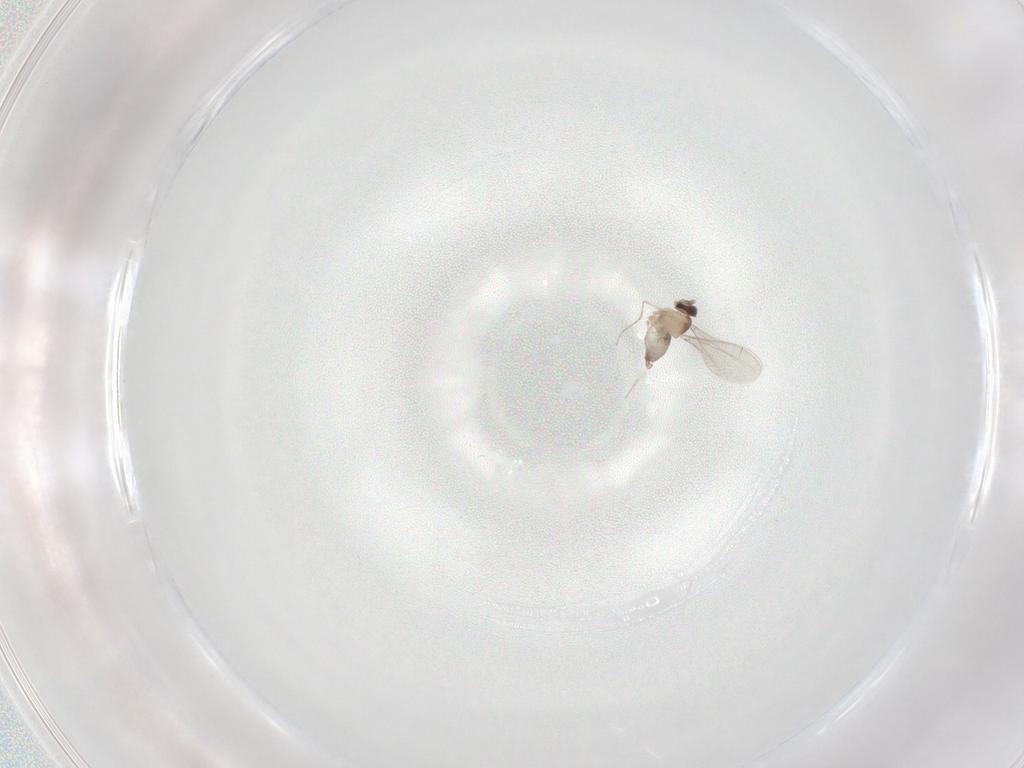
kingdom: Animalia
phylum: Arthropoda
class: Insecta
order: Diptera
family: Cecidomyiidae
